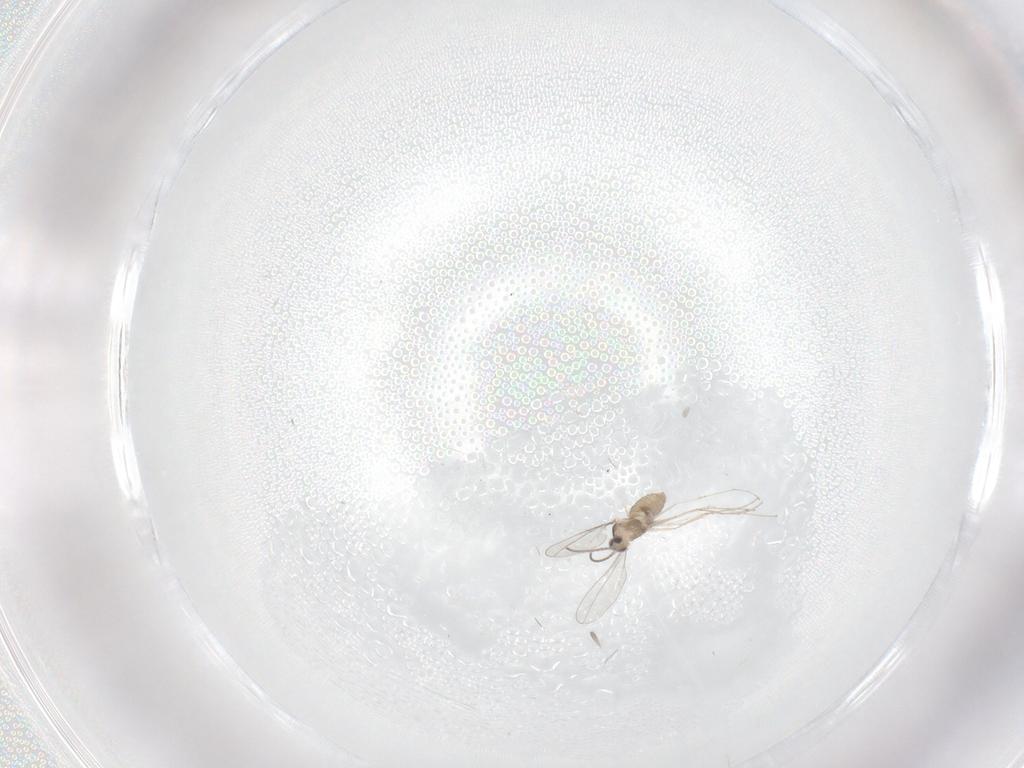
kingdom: Animalia
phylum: Arthropoda
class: Insecta
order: Diptera
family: Cecidomyiidae
